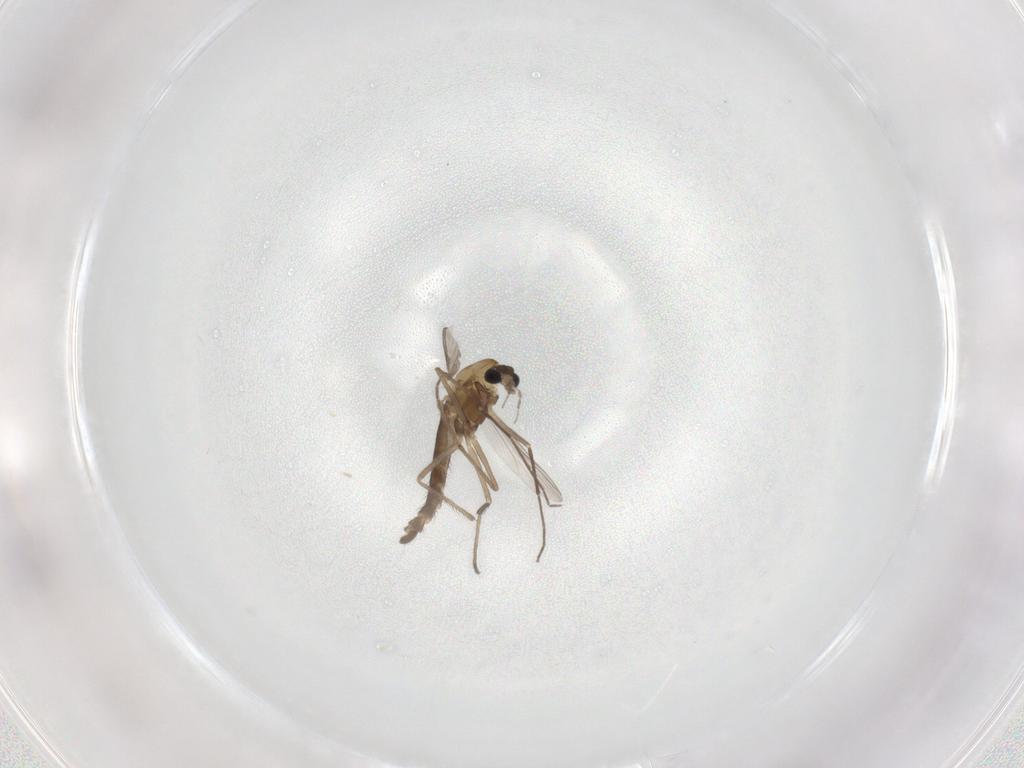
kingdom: Animalia
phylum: Arthropoda
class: Insecta
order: Diptera
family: Chironomidae
